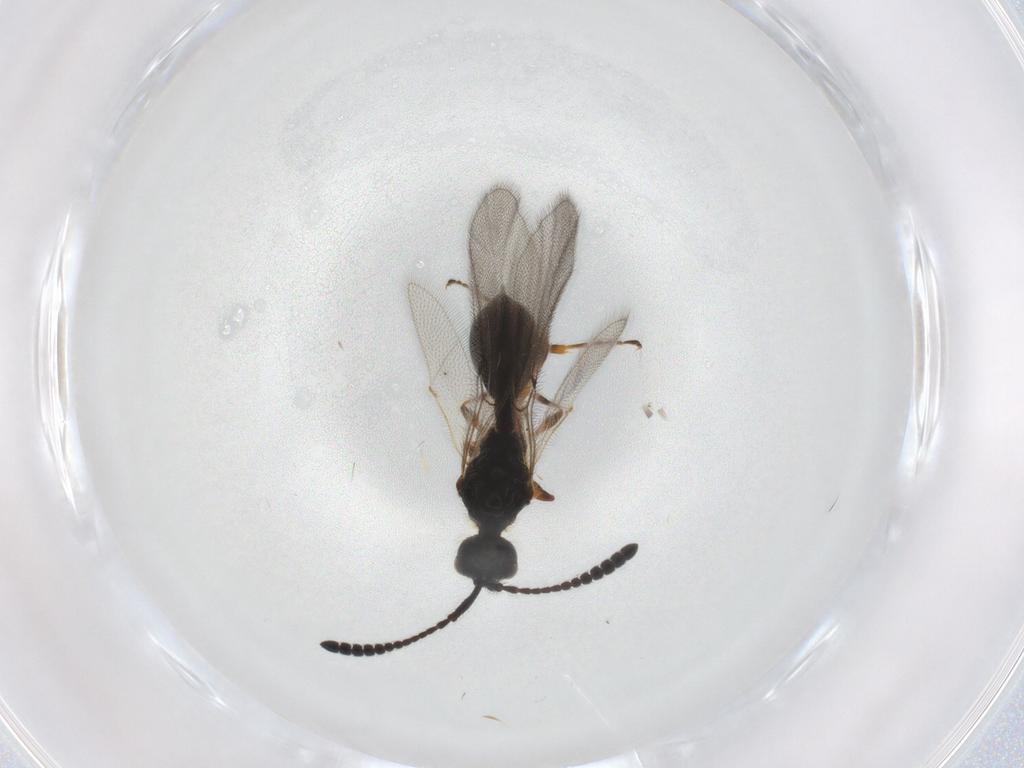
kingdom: Animalia
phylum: Arthropoda
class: Insecta
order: Hymenoptera
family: Diapriidae
